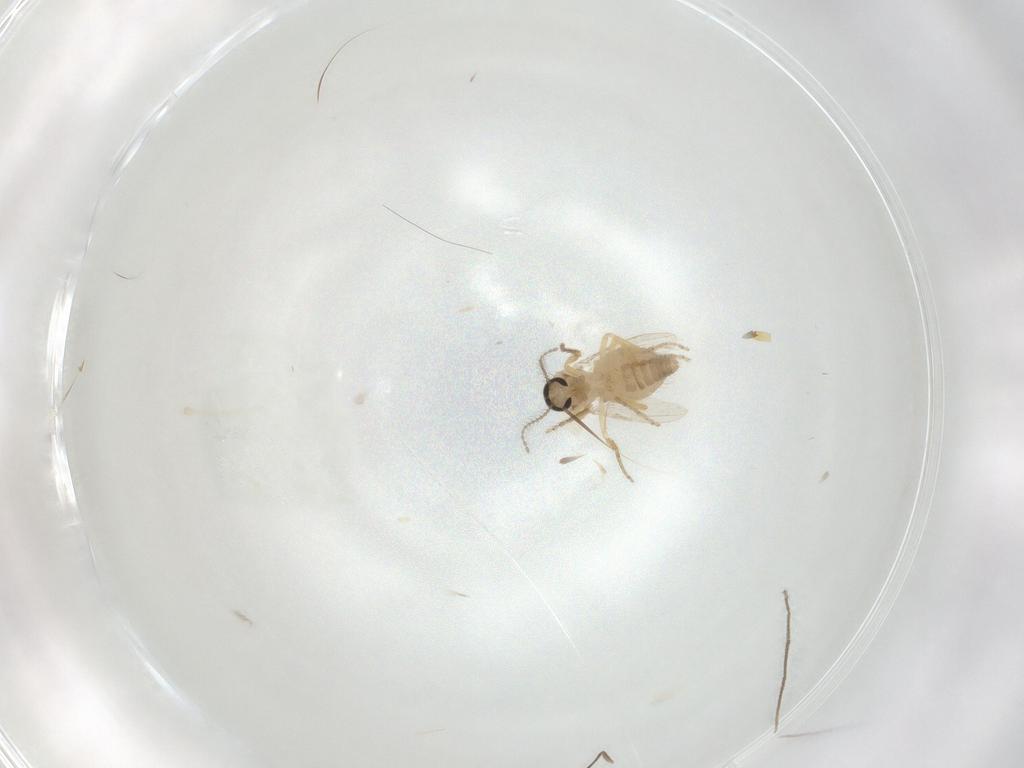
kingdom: Animalia
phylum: Arthropoda
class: Insecta
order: Diptera
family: Ceratopogonidae
